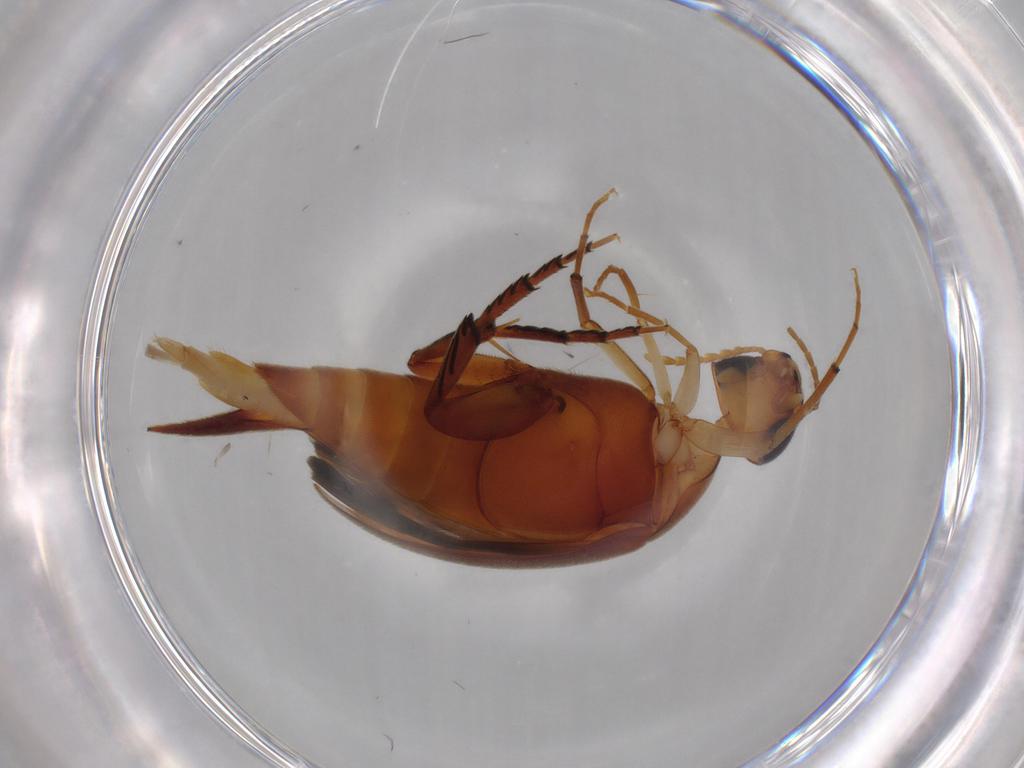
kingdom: Animalia
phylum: Arthropoda
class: Insecta
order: Coleoptera
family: Mordellidae
